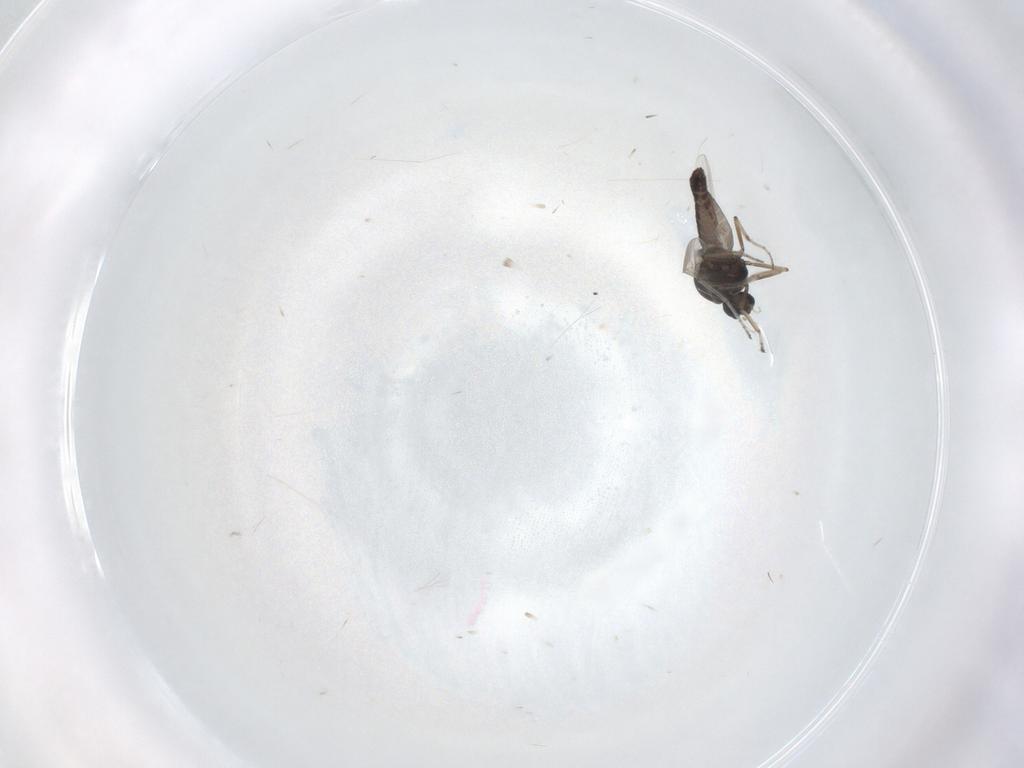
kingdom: Animalia
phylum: Arthropoda
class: Insecta
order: Diptera
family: Ceratopogonidae
